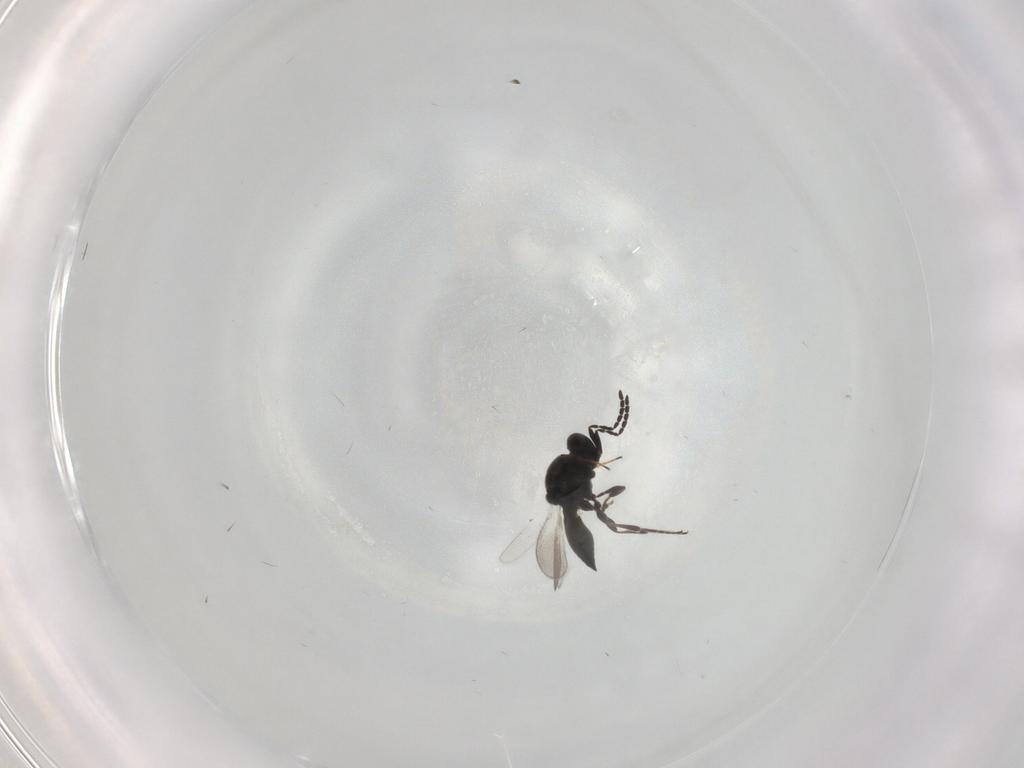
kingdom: Animalia
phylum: Arthropoda
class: Insecta
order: Hymenoptera
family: Platygastridae
